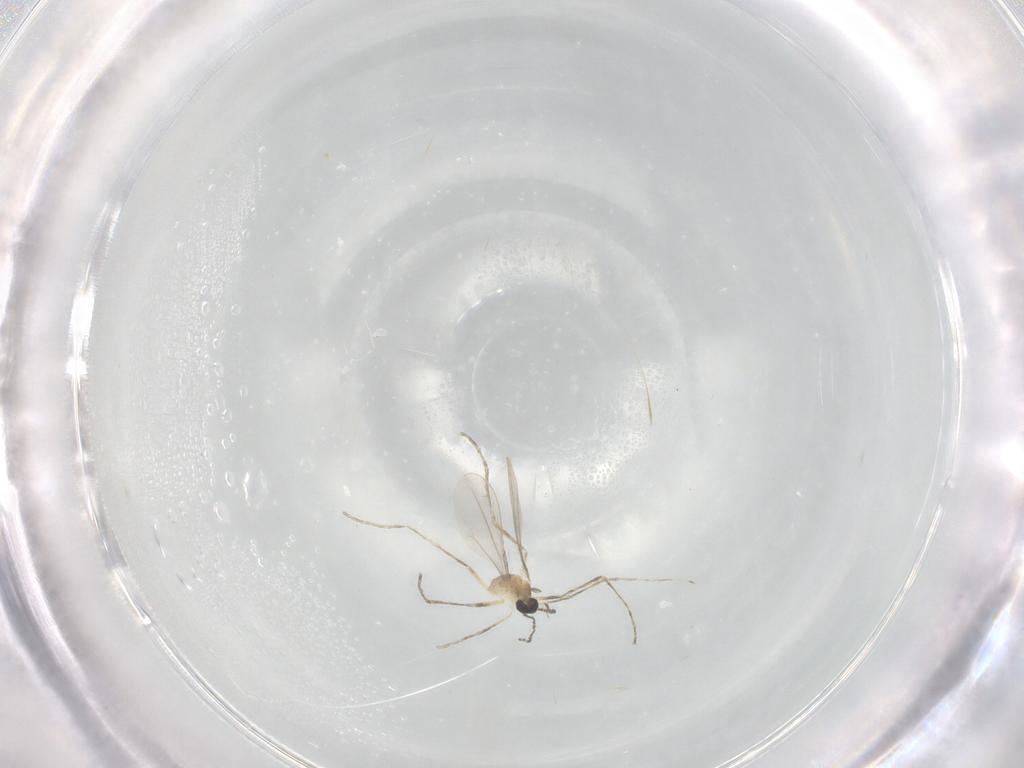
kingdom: Animalia
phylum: Arthropoda
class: Insecta
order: Diptera
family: Cecidomyiidae
